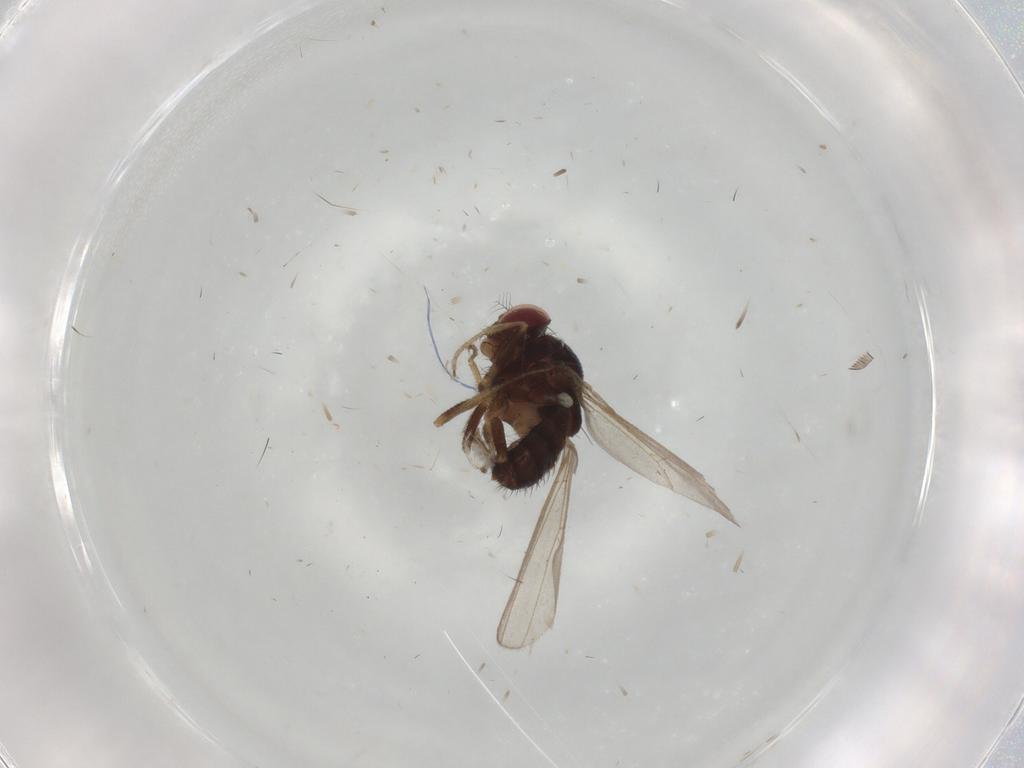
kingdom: Animalia
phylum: Arthropoda
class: Insecta
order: Diptera
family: Drosophilidae
